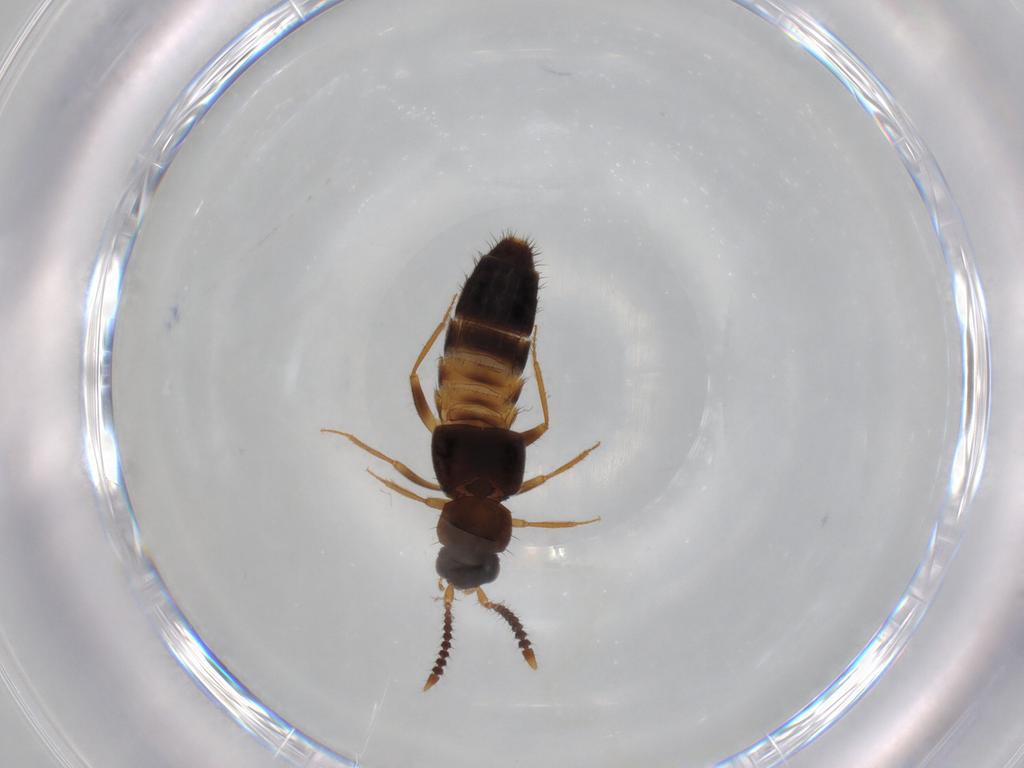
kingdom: Animalia
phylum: Arthropoda
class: Insecta
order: Coleoptera
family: Staphylinidae
